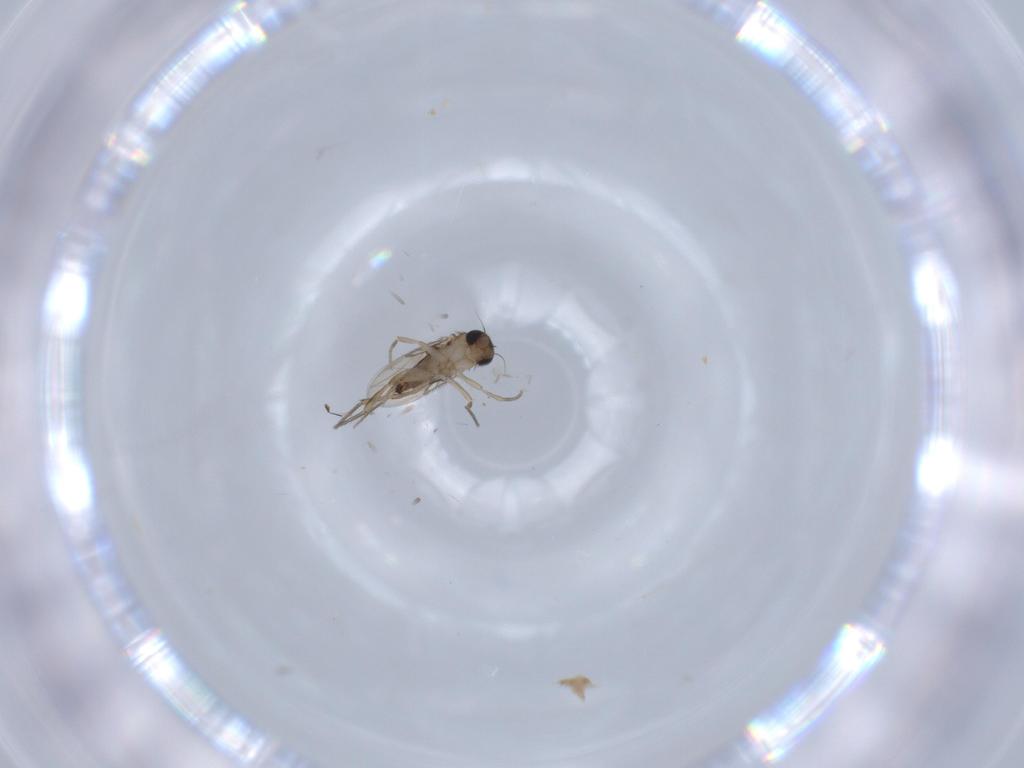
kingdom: Animalia
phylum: Arthropoda
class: Insecta
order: Diptera
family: Phoridae
